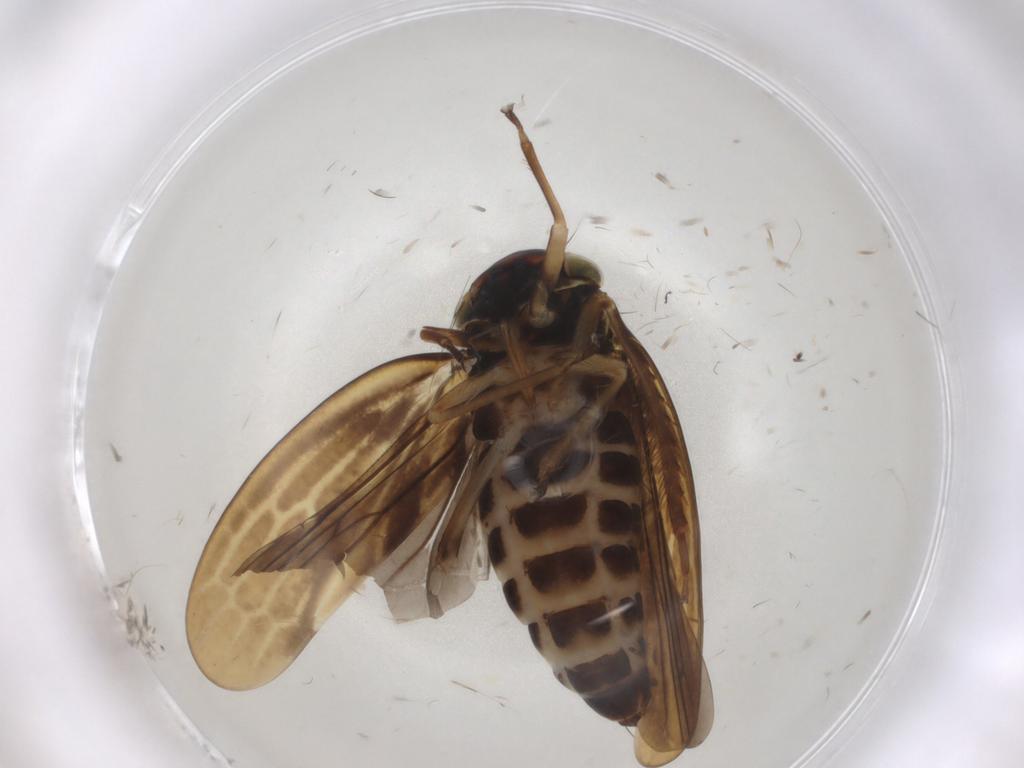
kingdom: Animalia
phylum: Arthropoda
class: Insecta
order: Hemiptera
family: Cicadellidae
